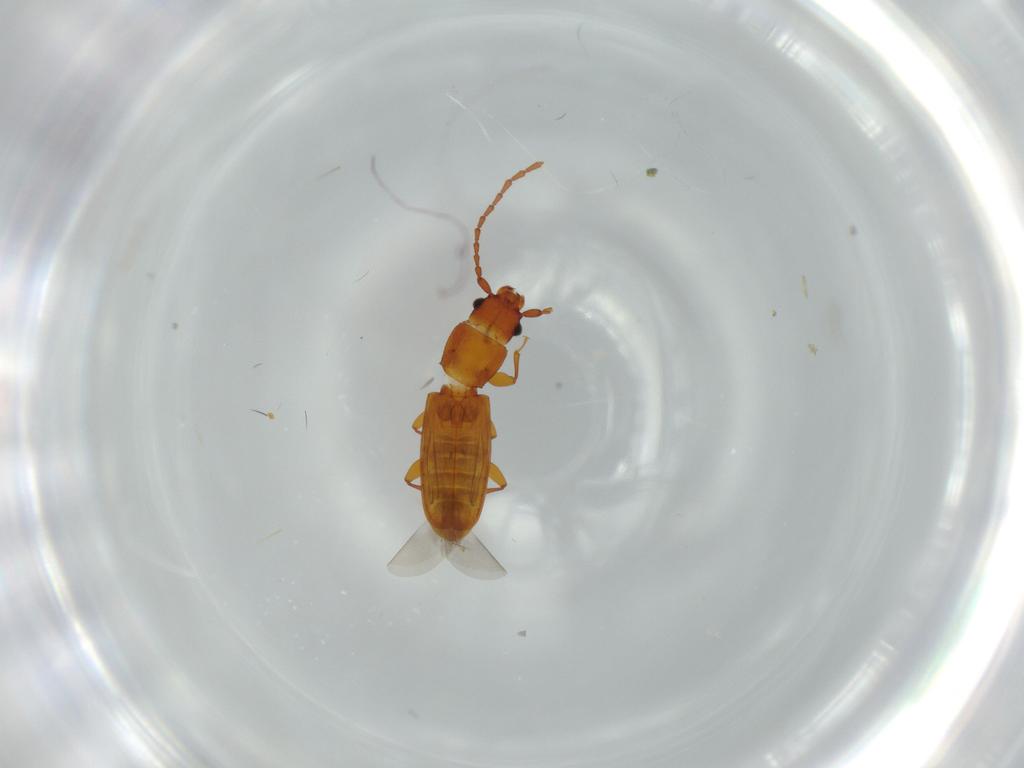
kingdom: Animalia
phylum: Arthropoda
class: Insecta
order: Coleoptera
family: Laemophloeidae
